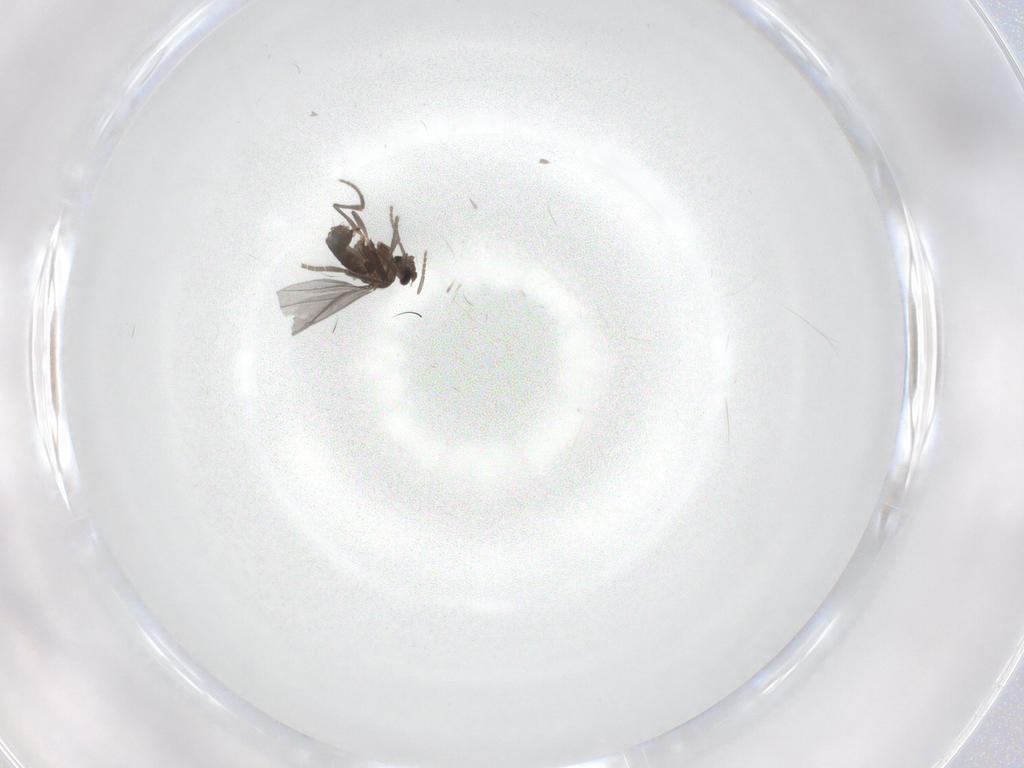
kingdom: Animalia
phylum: Arthropoda
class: Insecta
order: Diptera
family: Phoridae
